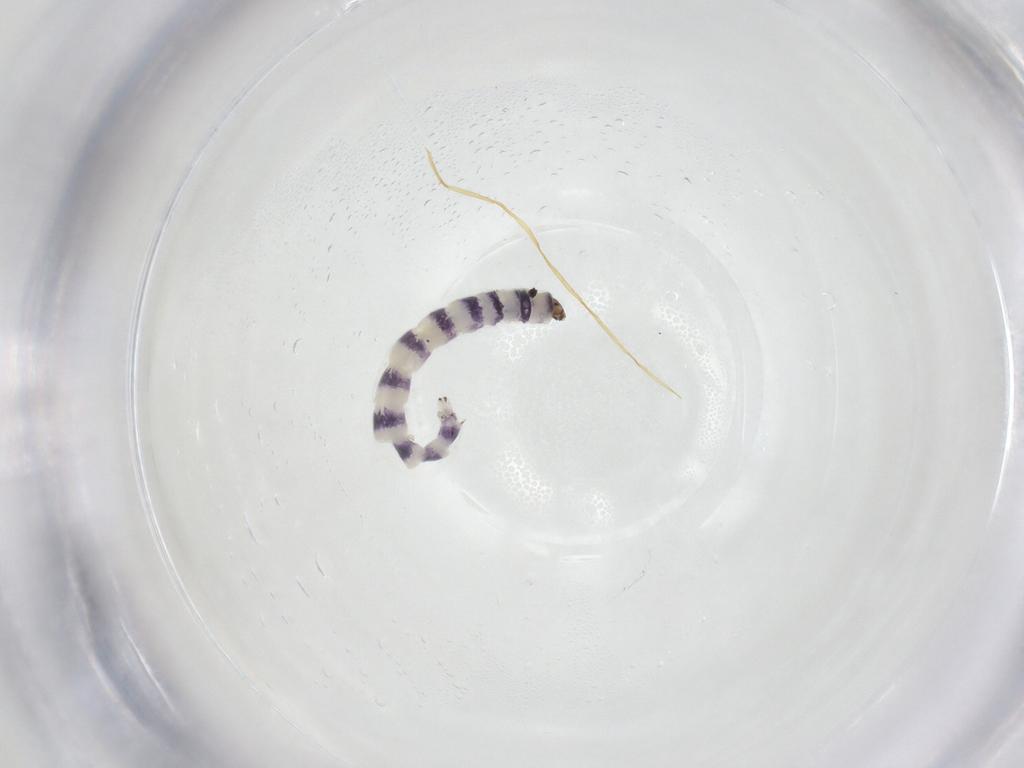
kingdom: Animalia
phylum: Arthropoda
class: Insecta
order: Diptera
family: Chironomidae
